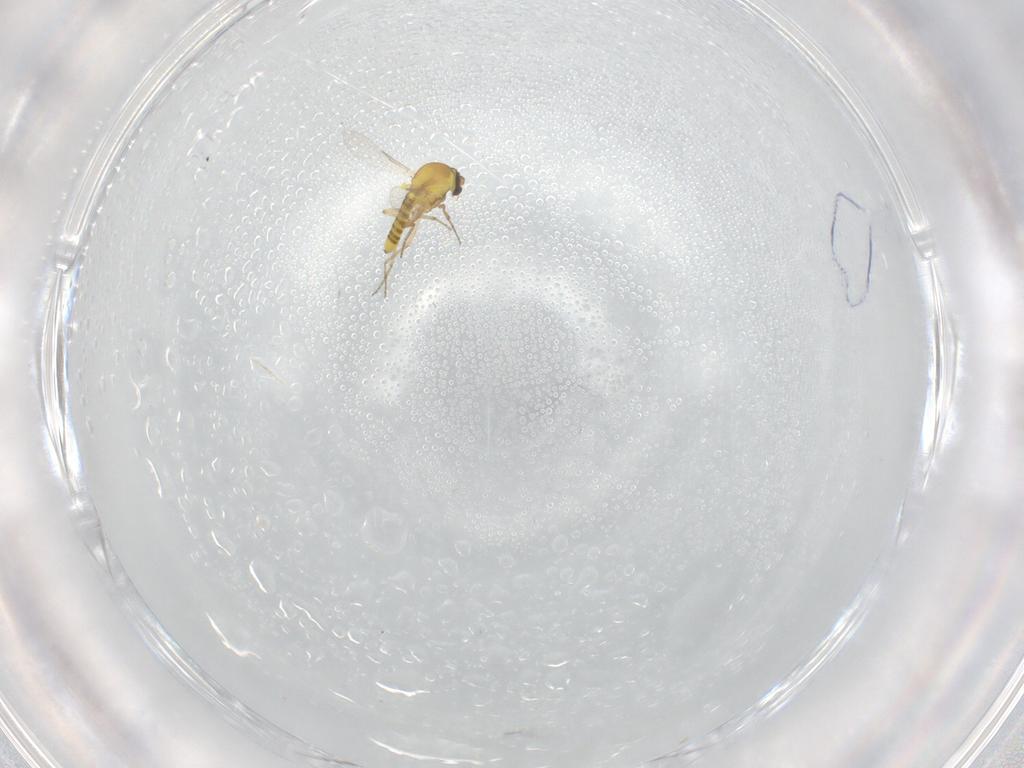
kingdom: Animalia
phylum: Arthropoda
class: Insecta
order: Diptera
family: Ceratopogonidae
